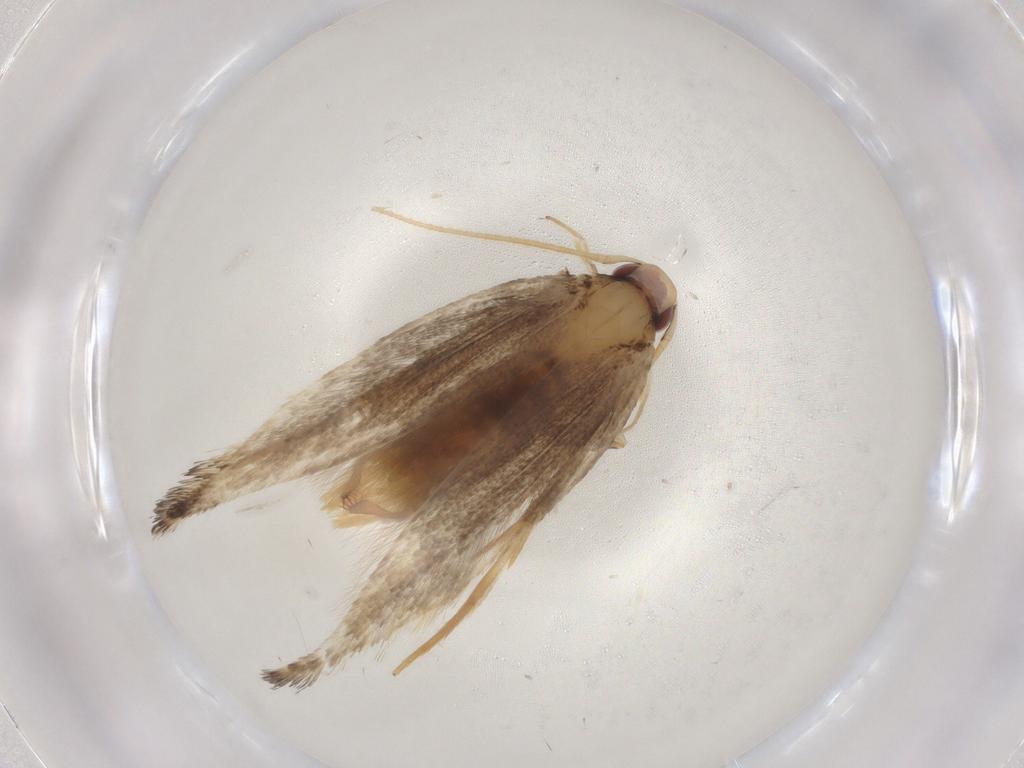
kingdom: Animalia
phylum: Arthropoda
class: Insecta
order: Lepidoptera
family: Cosmopterigidae
